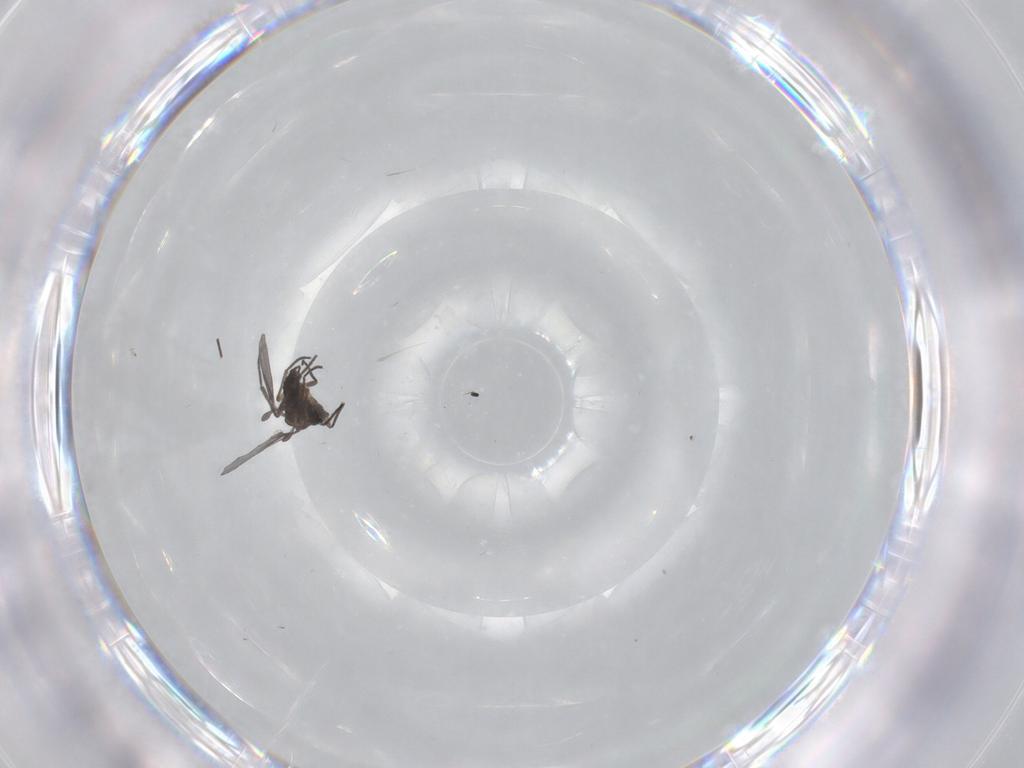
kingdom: Animalia
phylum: Arthropoda
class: Insecta
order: Diptera
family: Sciaridae
